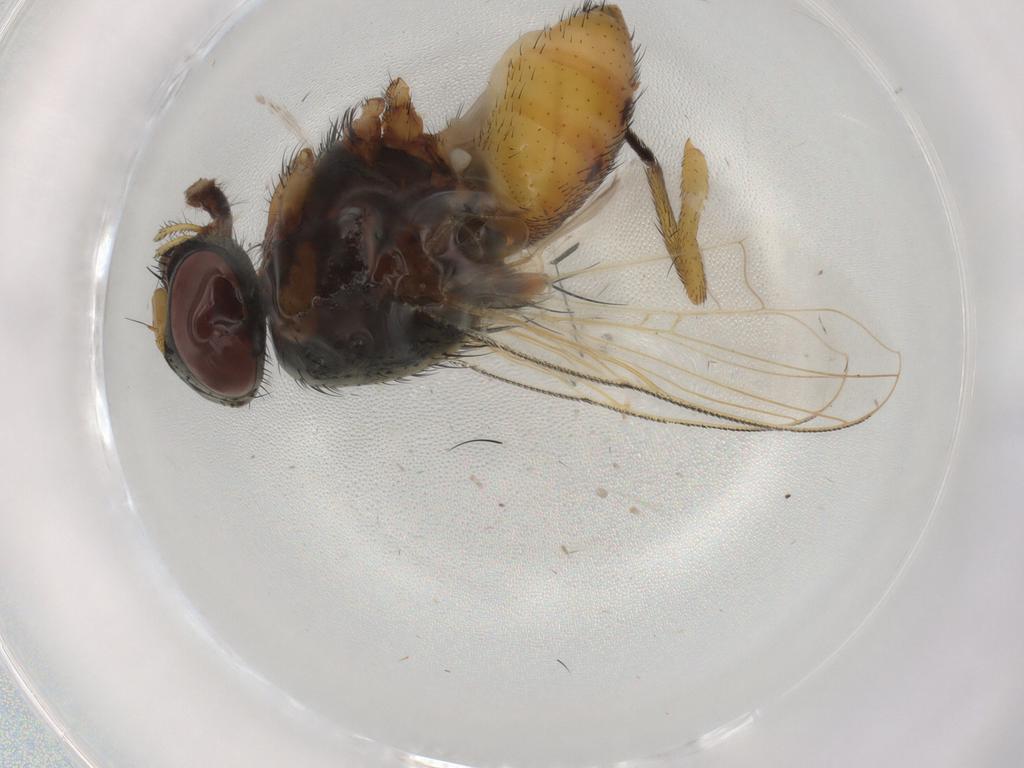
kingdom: Animalia
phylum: Arthropoda
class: Insecta
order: Diptera
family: Muscidae
